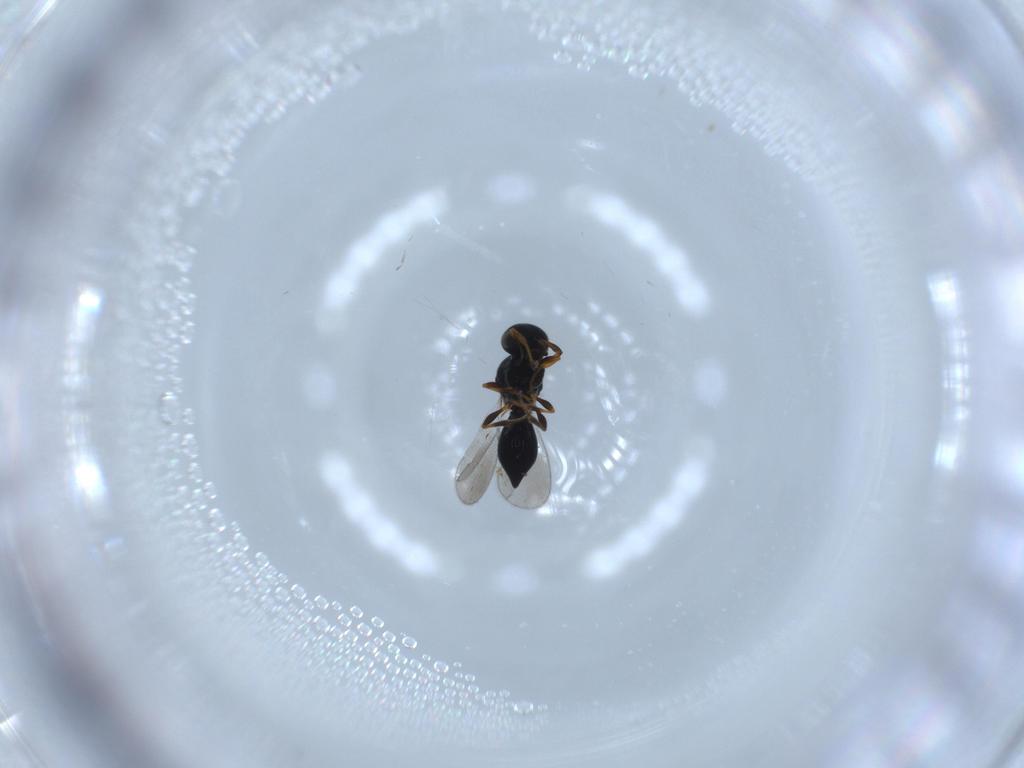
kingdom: Animalia
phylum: Arthropoda
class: Insecta
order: Hymenoptera
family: Platygastridae
